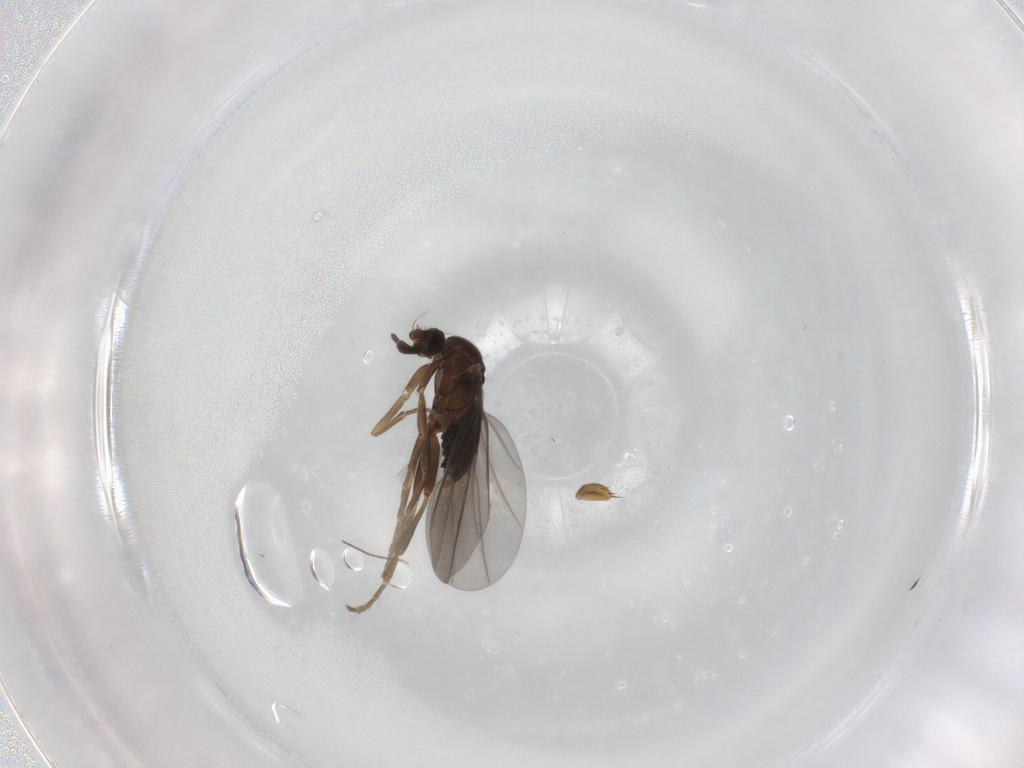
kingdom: Animalia
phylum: Arthropoda
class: Insecta
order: Diptera
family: Phoridae
